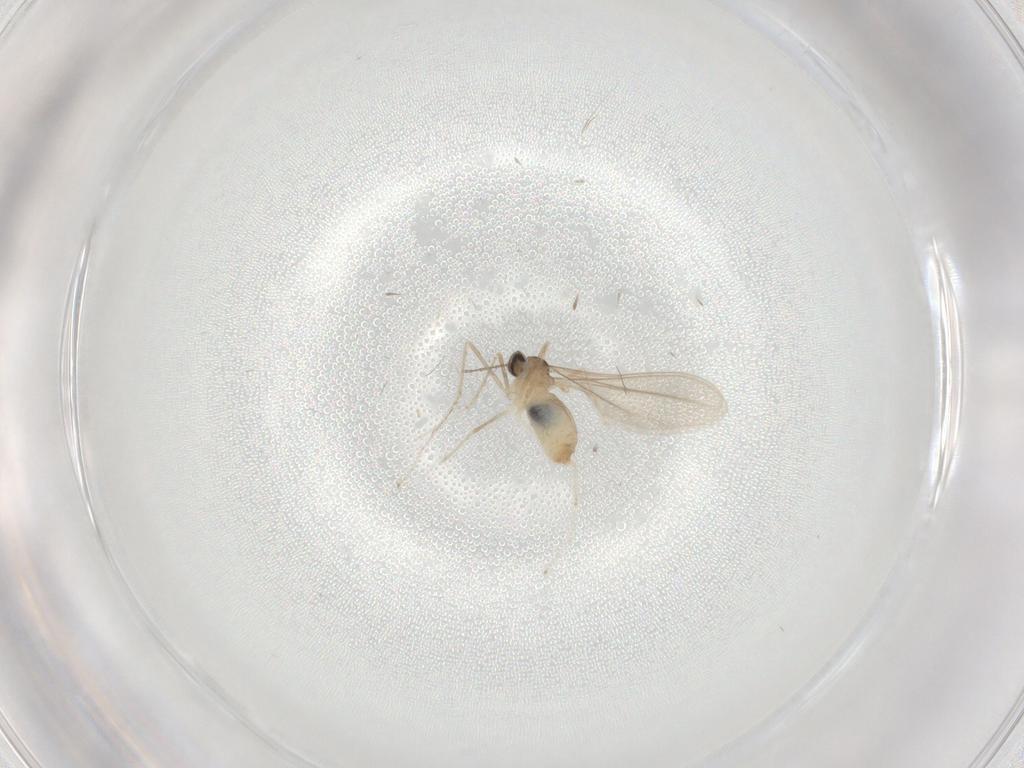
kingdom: Animalia
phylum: Arthropoda
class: Insecta
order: Diptera
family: Cecidomyiidae
